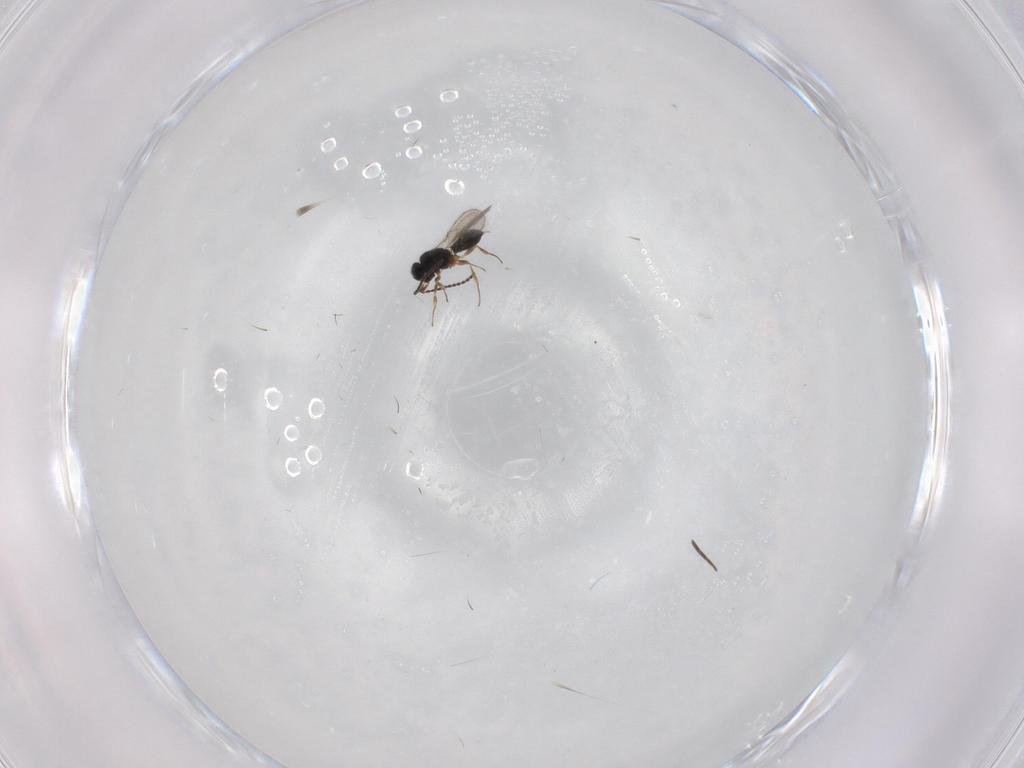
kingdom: Animalia
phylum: Arthropoda
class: Insecta
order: Hymenoptera
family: Scelionidae
